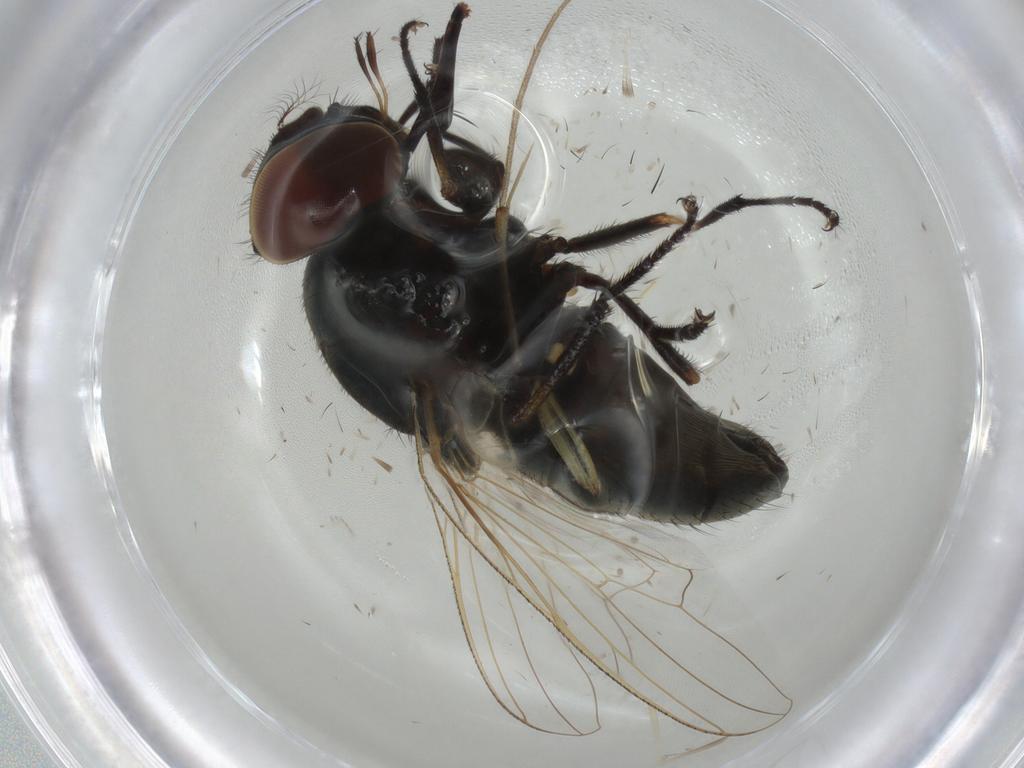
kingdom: Animalia
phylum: Arthropoda
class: Insecta
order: Diptera
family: Muscidae
